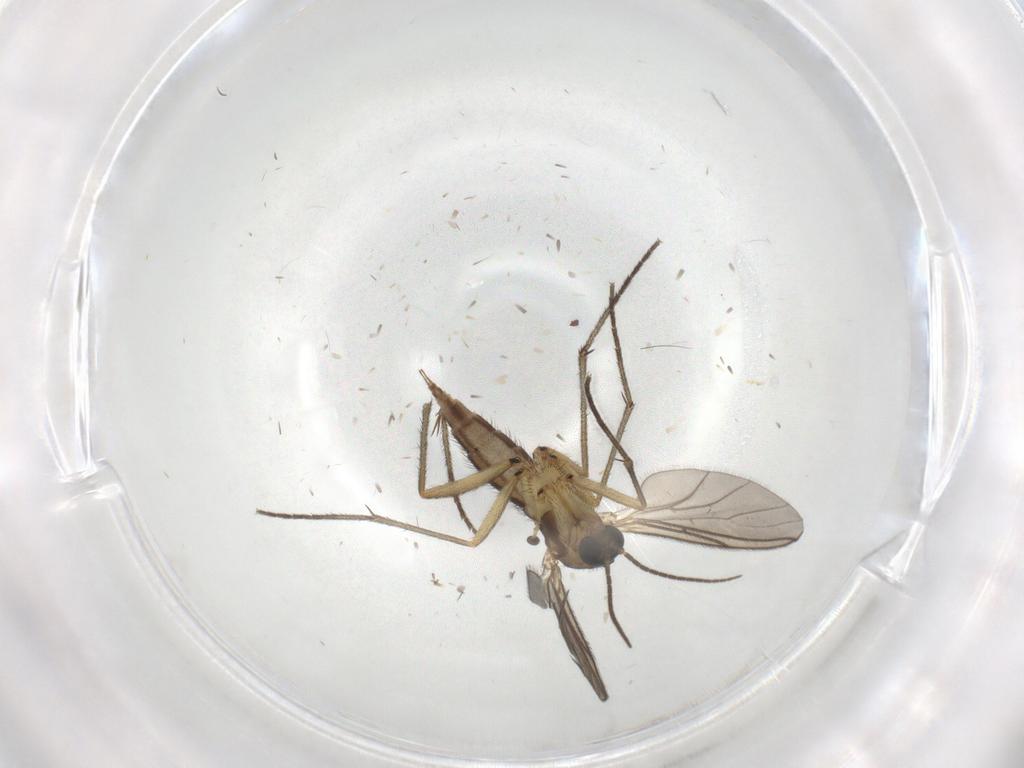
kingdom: Animalia
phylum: Arthropoda
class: Insecta
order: Diptera
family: Sciaridae
